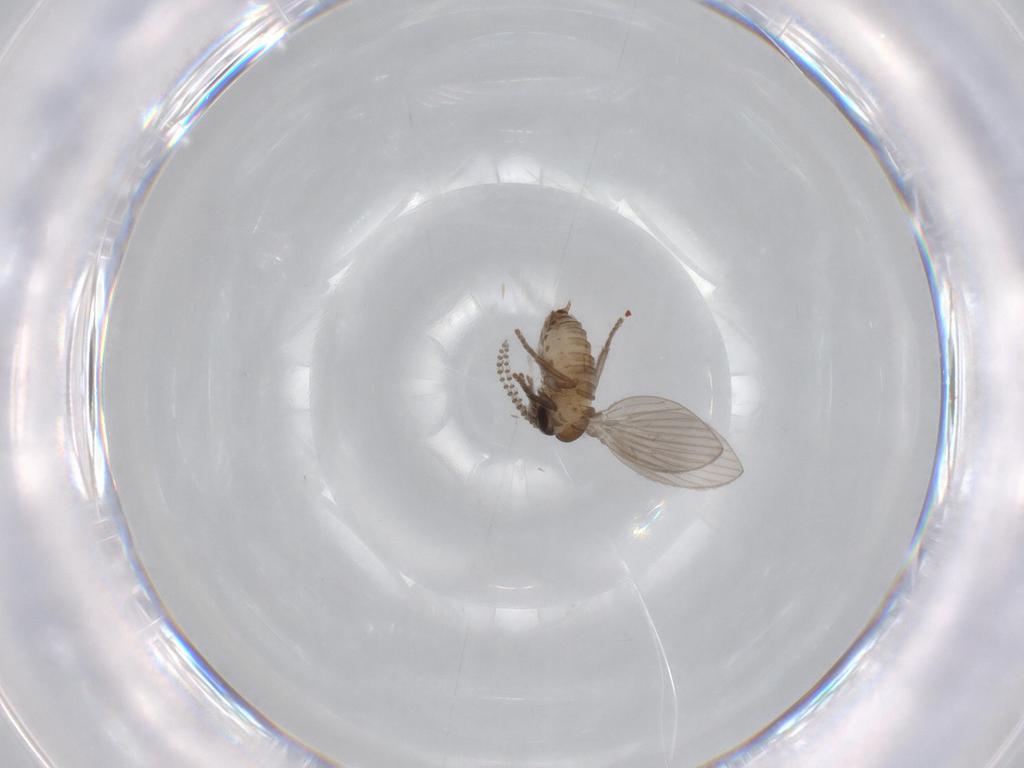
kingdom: Animalia
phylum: Arthropoda
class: Insecta
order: Diptera
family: Psychodidae
